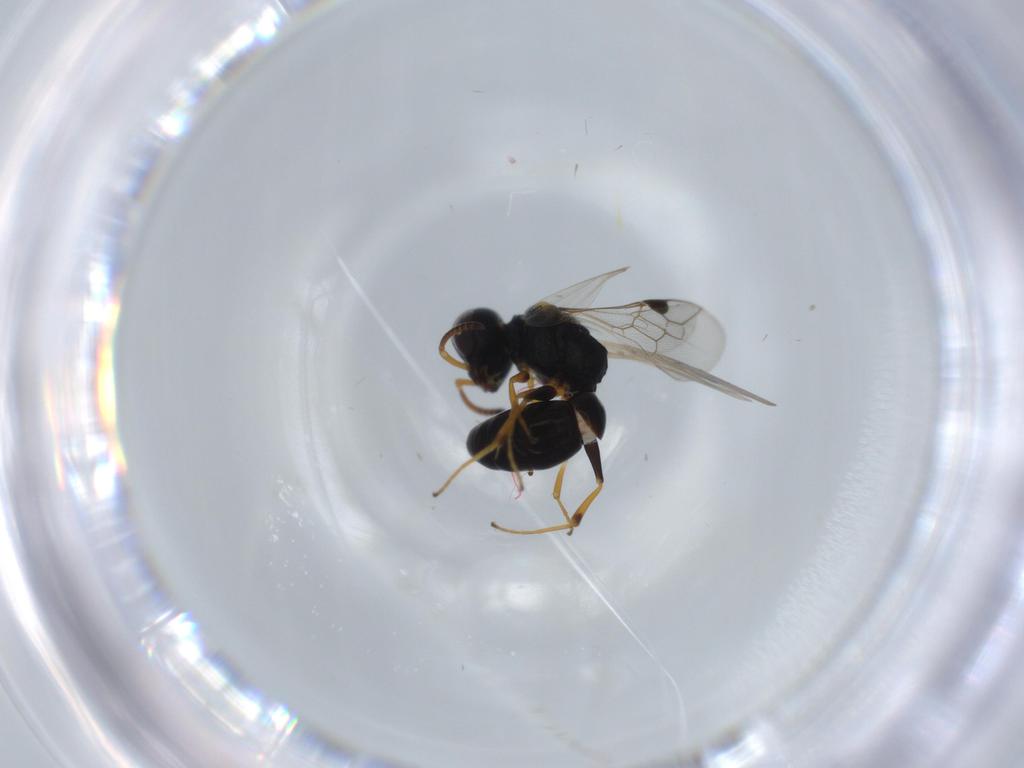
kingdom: Animalia
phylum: Arthropoda
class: Insecta
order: Hymenoptera
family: Pemphredonidae
